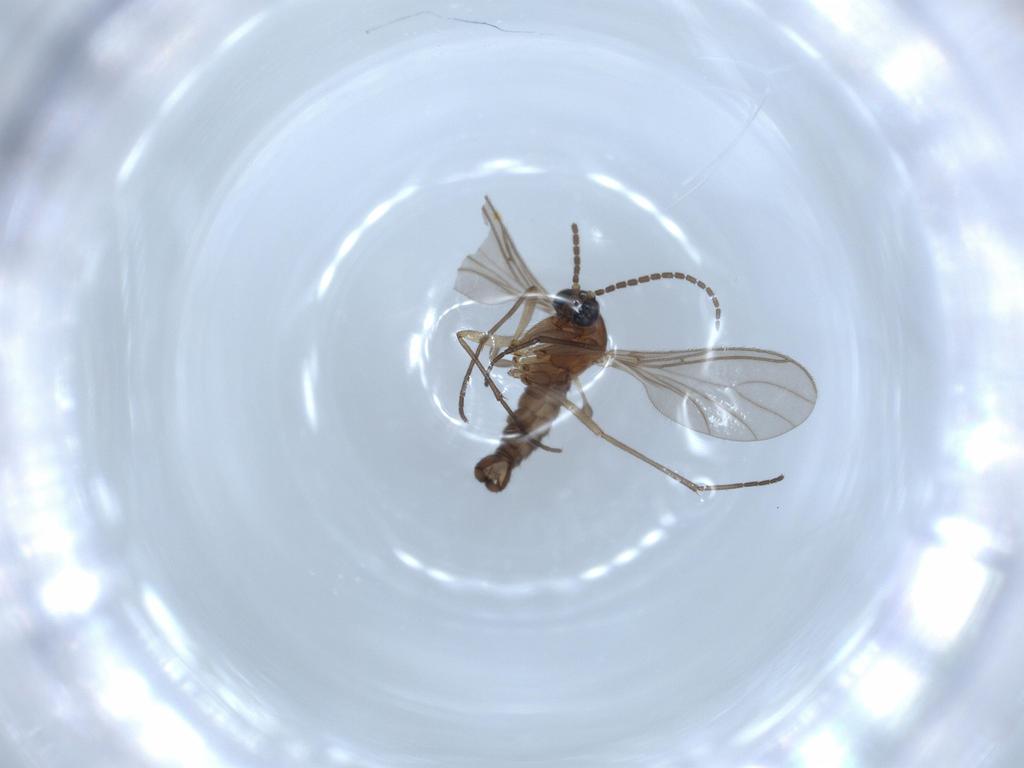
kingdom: Animalia
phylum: Arthropoda
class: Insecta
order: Diptera
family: Sciaridae
